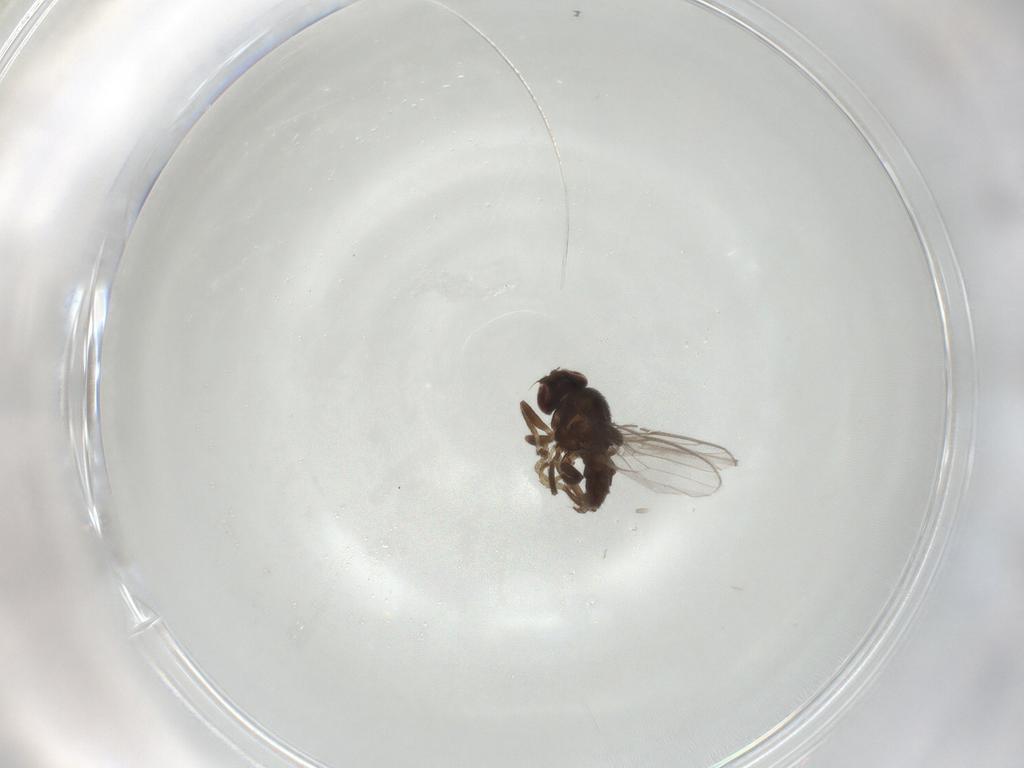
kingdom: Animalia
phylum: Arthropoda
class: Insecta
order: Diptera
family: Chloropidae
